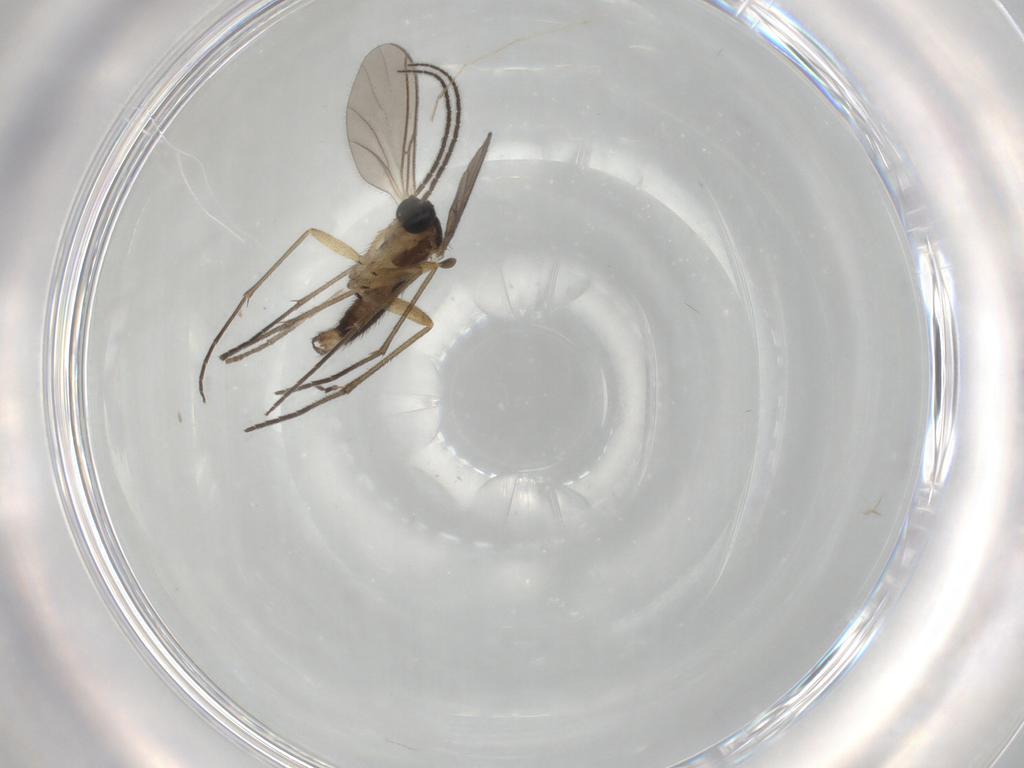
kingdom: Animalia
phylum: Arthropoda
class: Insecta
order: Diptera
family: Sciaridae
